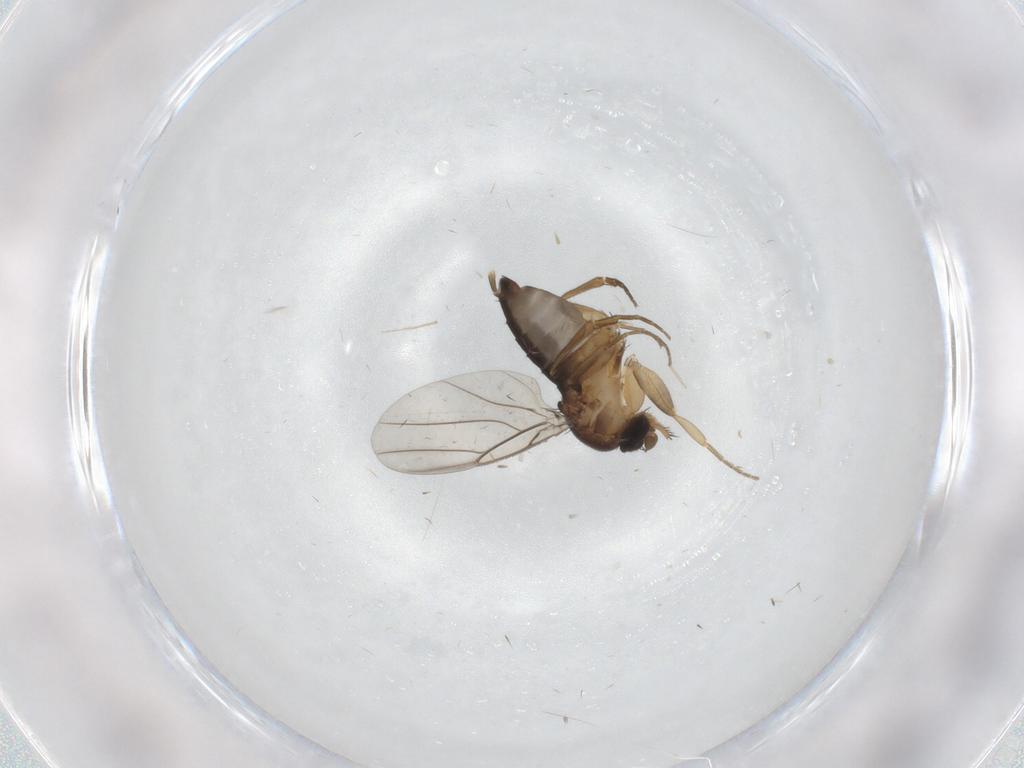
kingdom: Animalia
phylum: Arthropoda
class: Insecta
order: Diptera
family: Phoridae
